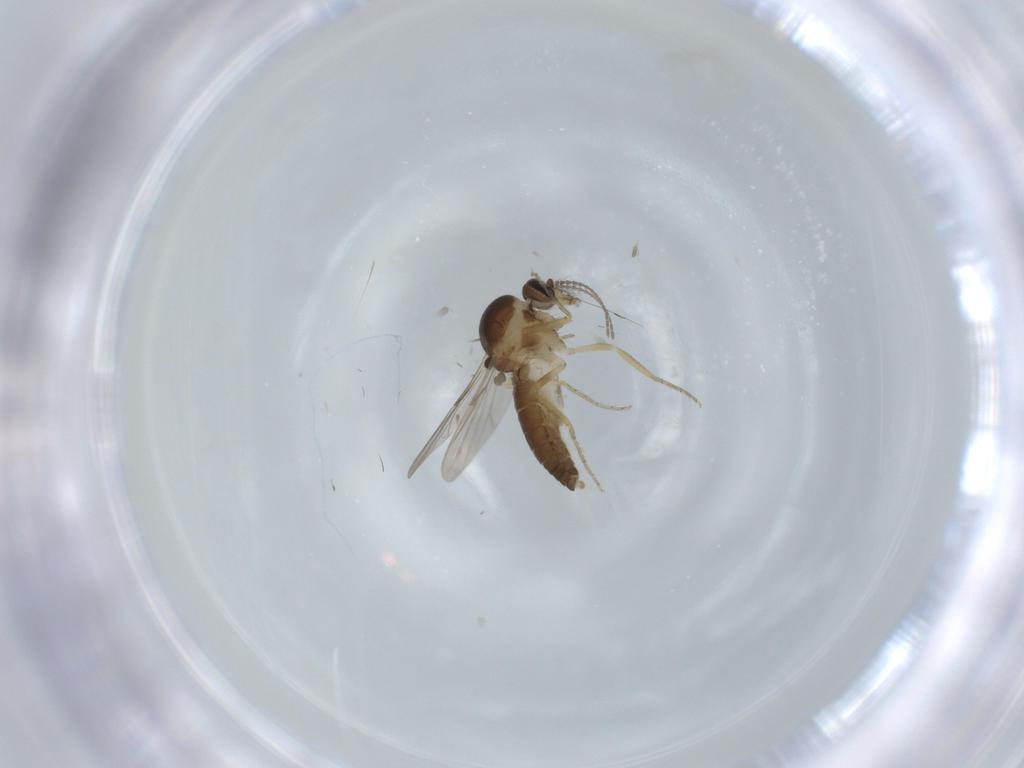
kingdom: Animalia
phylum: Arthropoda
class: Insecta
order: Diptera
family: Ceratopogonidae
